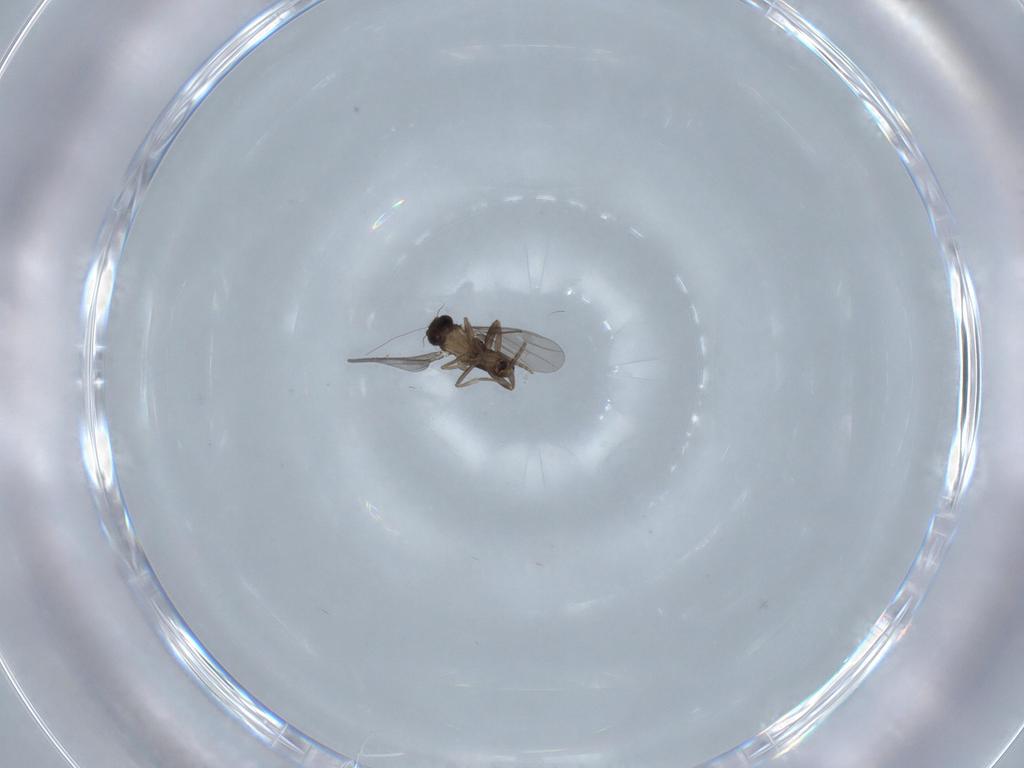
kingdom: Animalia
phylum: Arthropoda
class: Insecta
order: Diptera
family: Chironomidae
